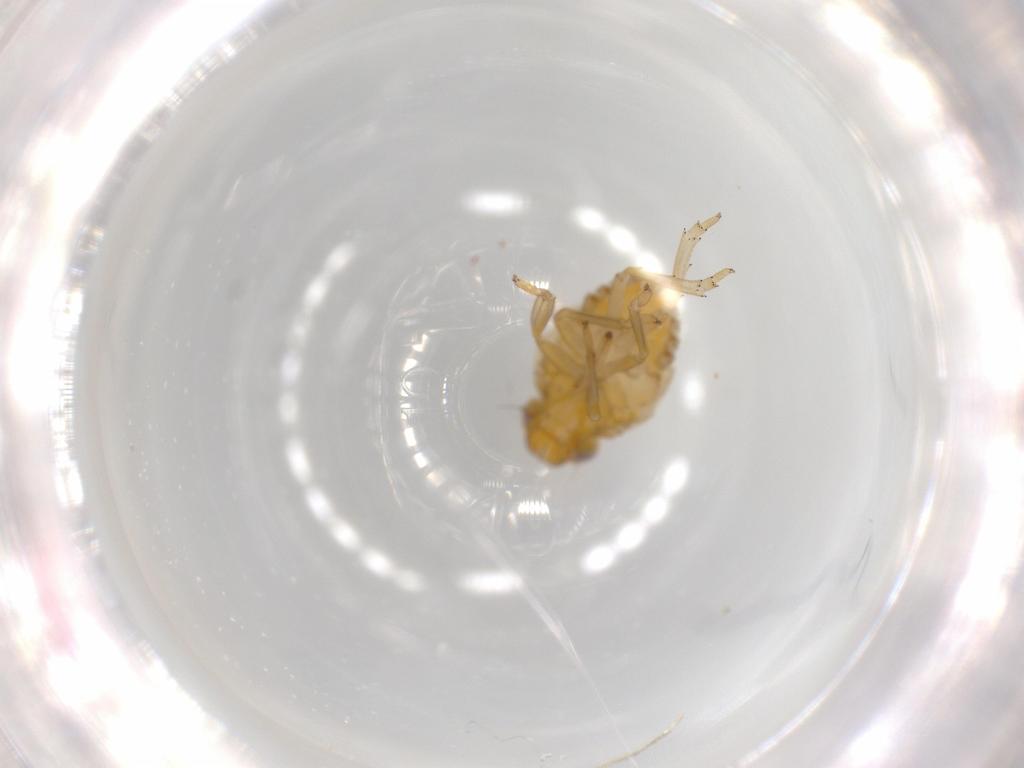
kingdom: Animalia
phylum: Arthropoda
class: Insecta
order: Hemiptera
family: Issidae
